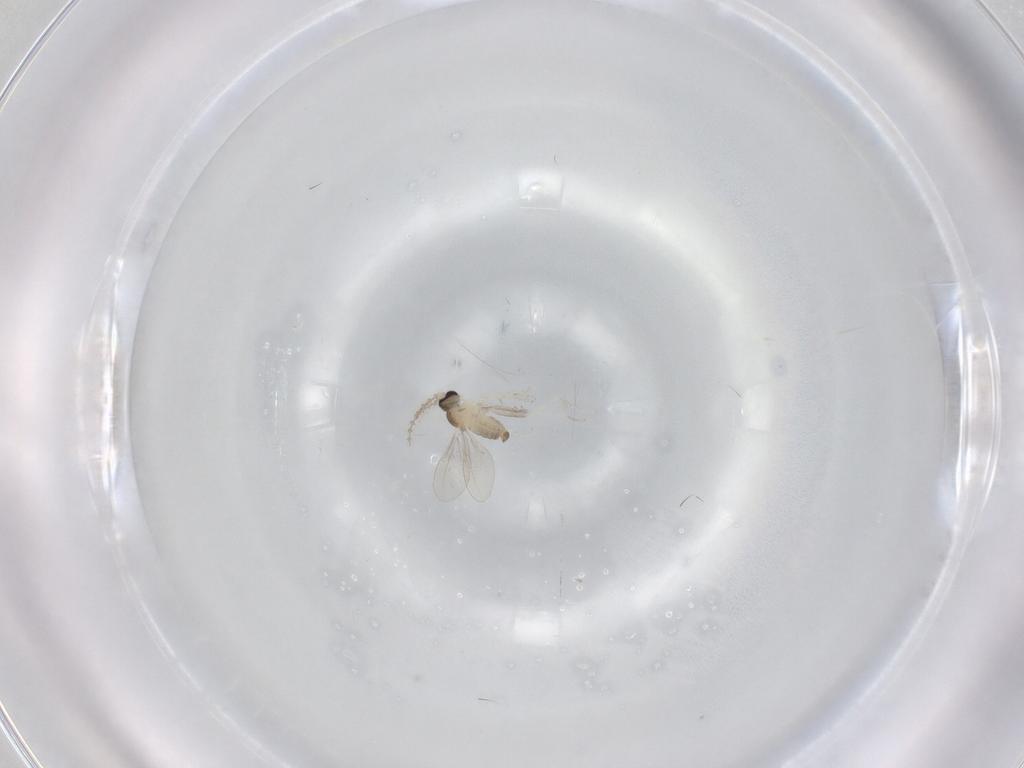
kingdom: Animalia
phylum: Arthropoda
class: Insecta
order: Diptera
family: Cecidomyiidae
